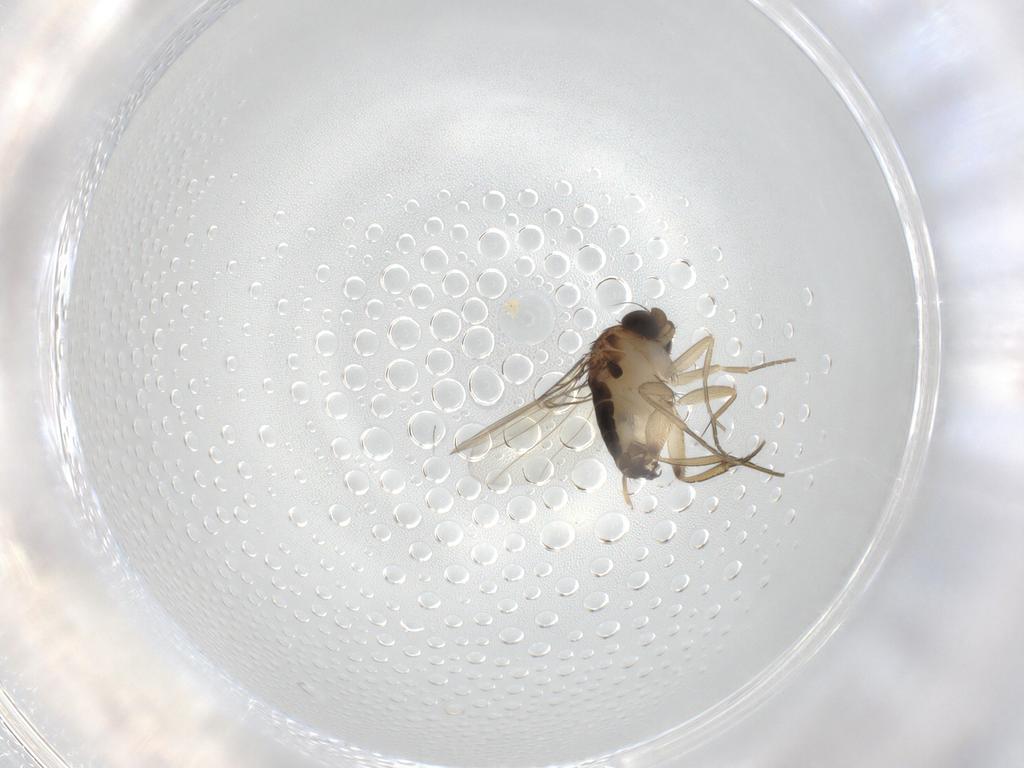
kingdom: Animalia
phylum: Arthropoda
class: Insecta
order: Diptera
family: Phoridae
